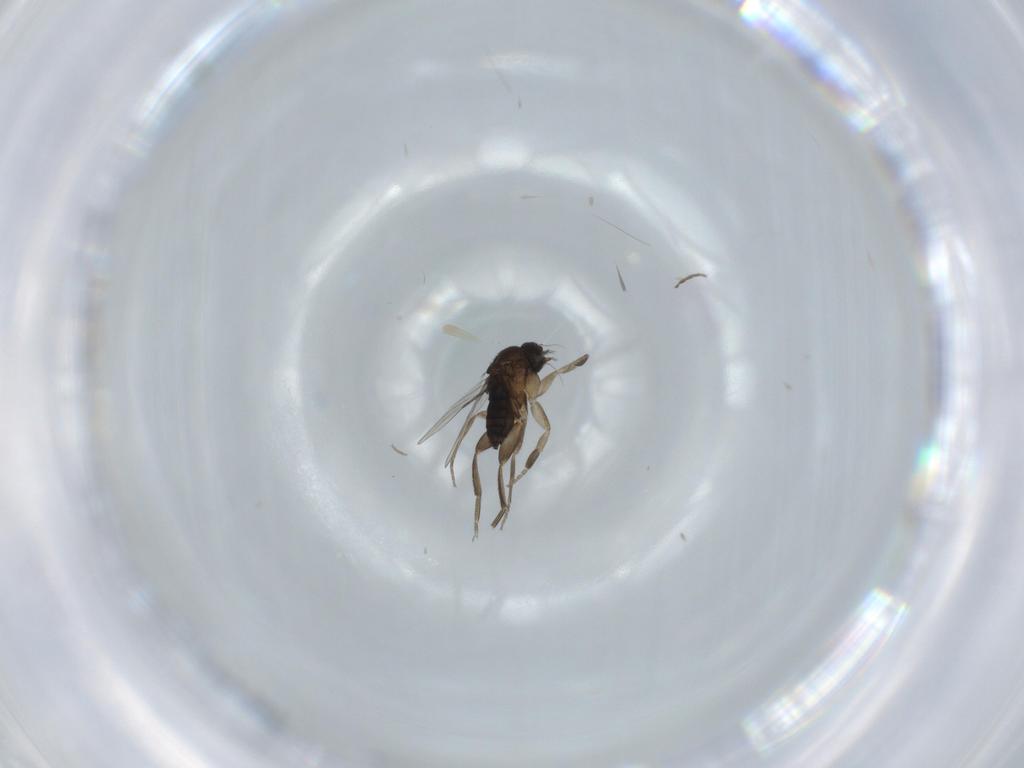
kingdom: Animalia
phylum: Arthropoda
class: Insecta
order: Diptera
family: Phoridae
